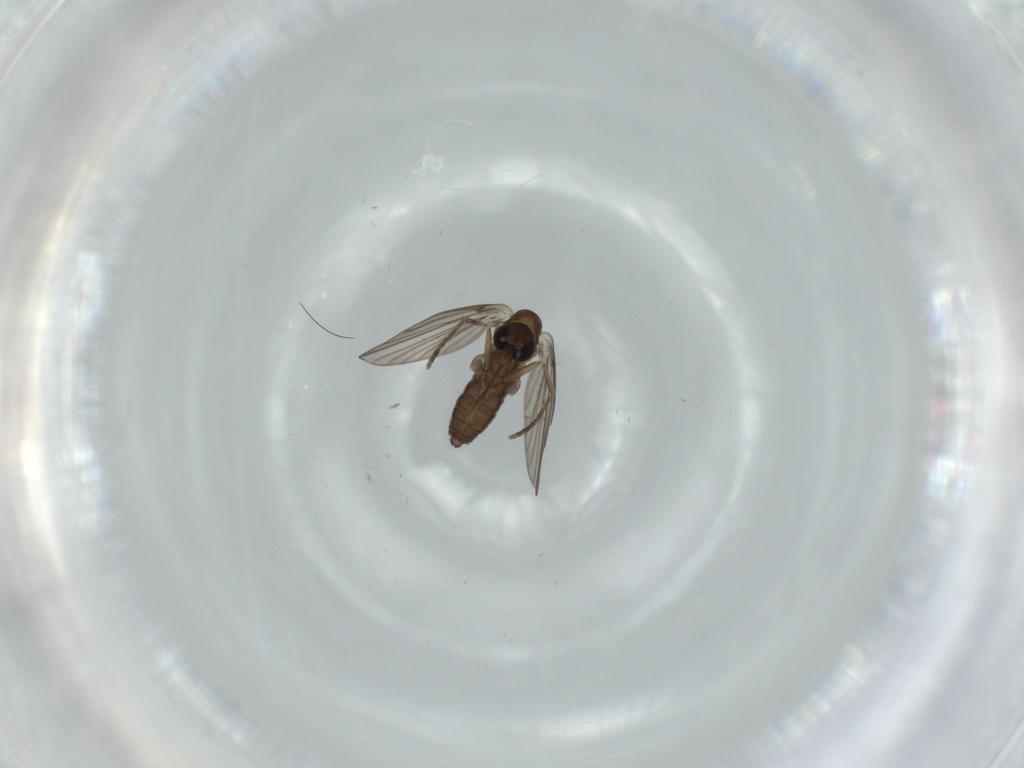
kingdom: Animalia
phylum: Arthropoda
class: Insecta
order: Diptera
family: Psychodidae
